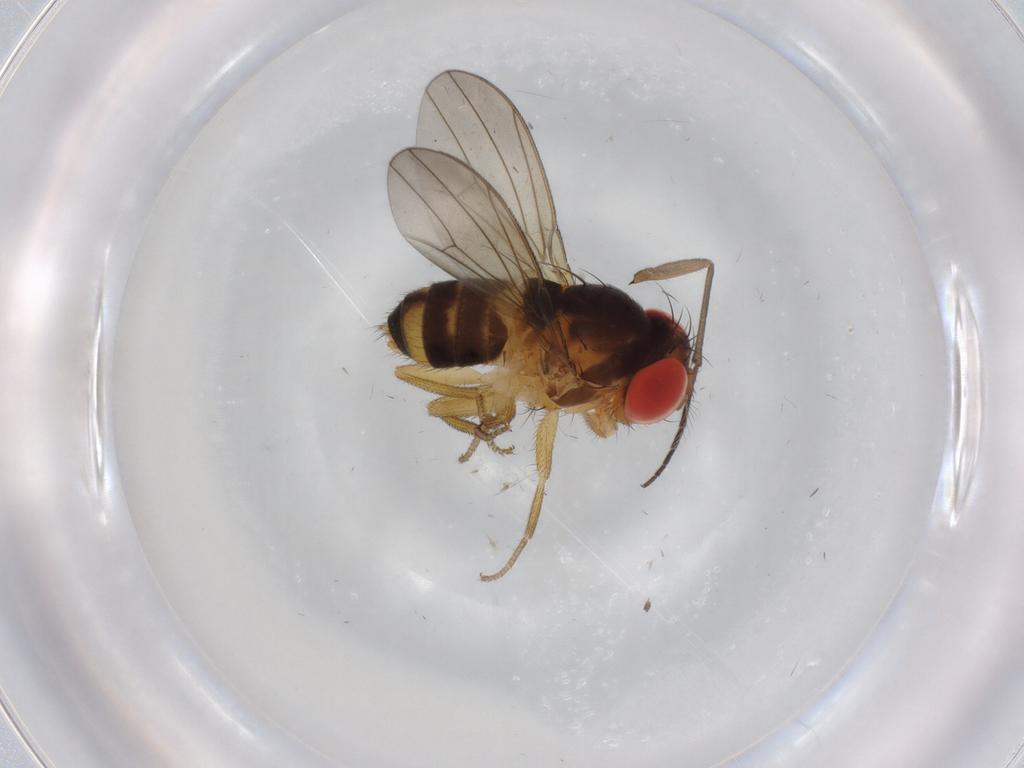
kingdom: Animalia
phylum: Arthropoda
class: Insecta
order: Diptera
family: Drosophilidae
